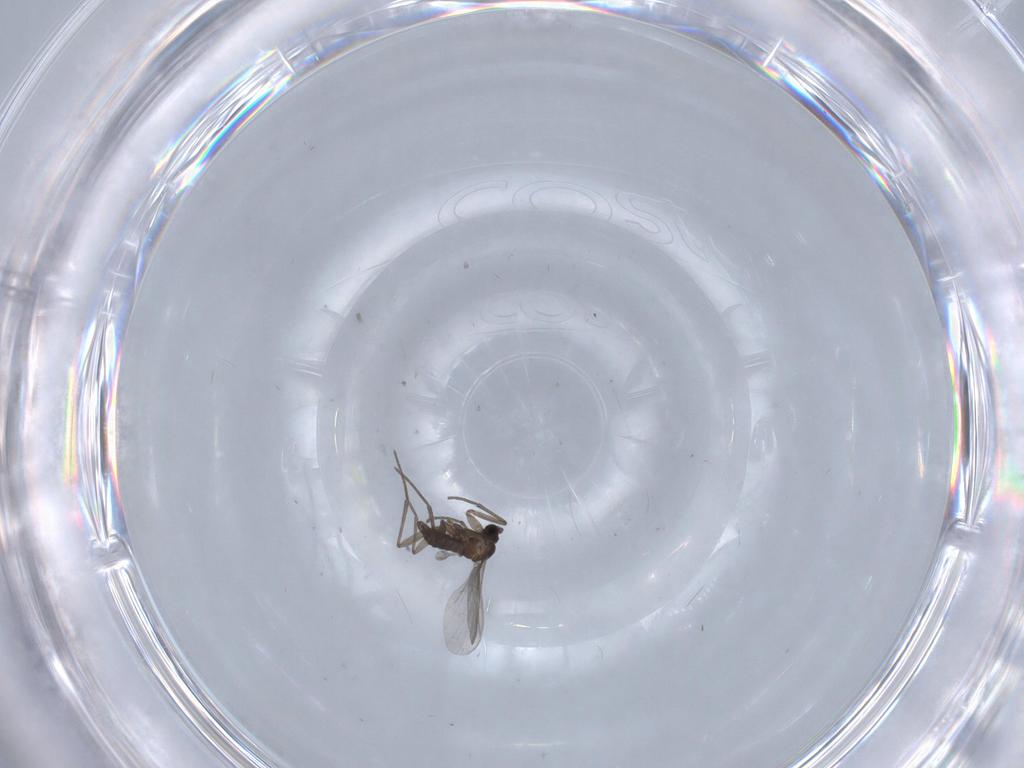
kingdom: Animalia
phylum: Arthropoda
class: Insecta
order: Diptera
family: Sciaridae
